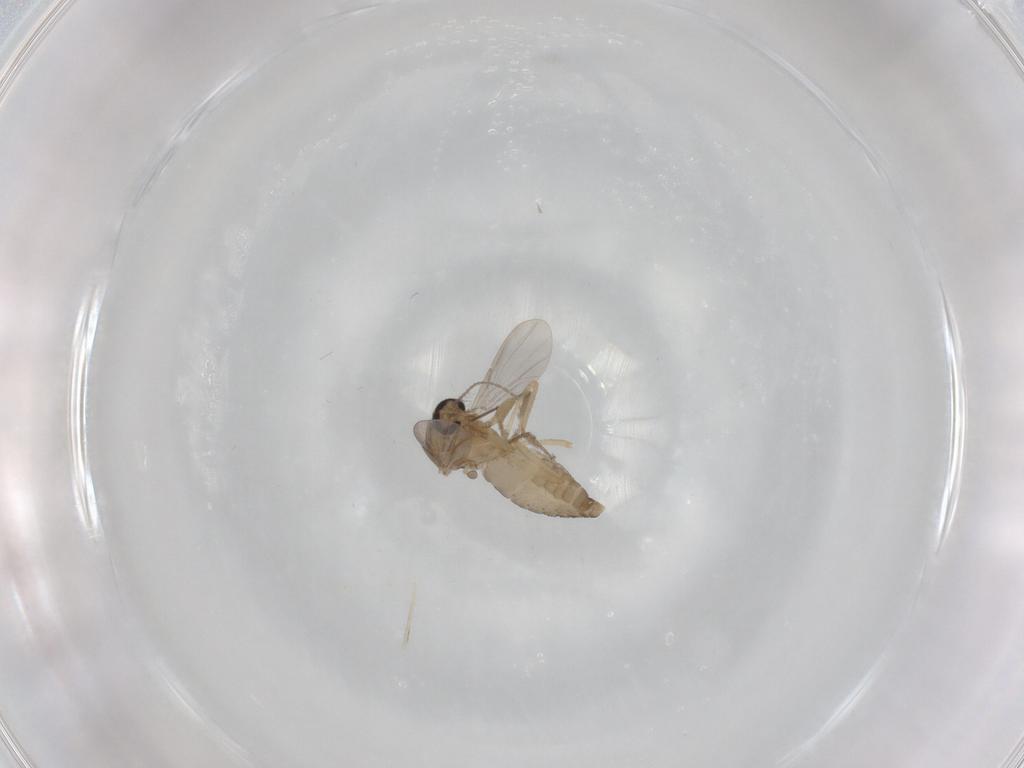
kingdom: Animalia
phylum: Arthropoda
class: Insecta
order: Diptera
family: Ceratopogonidae
